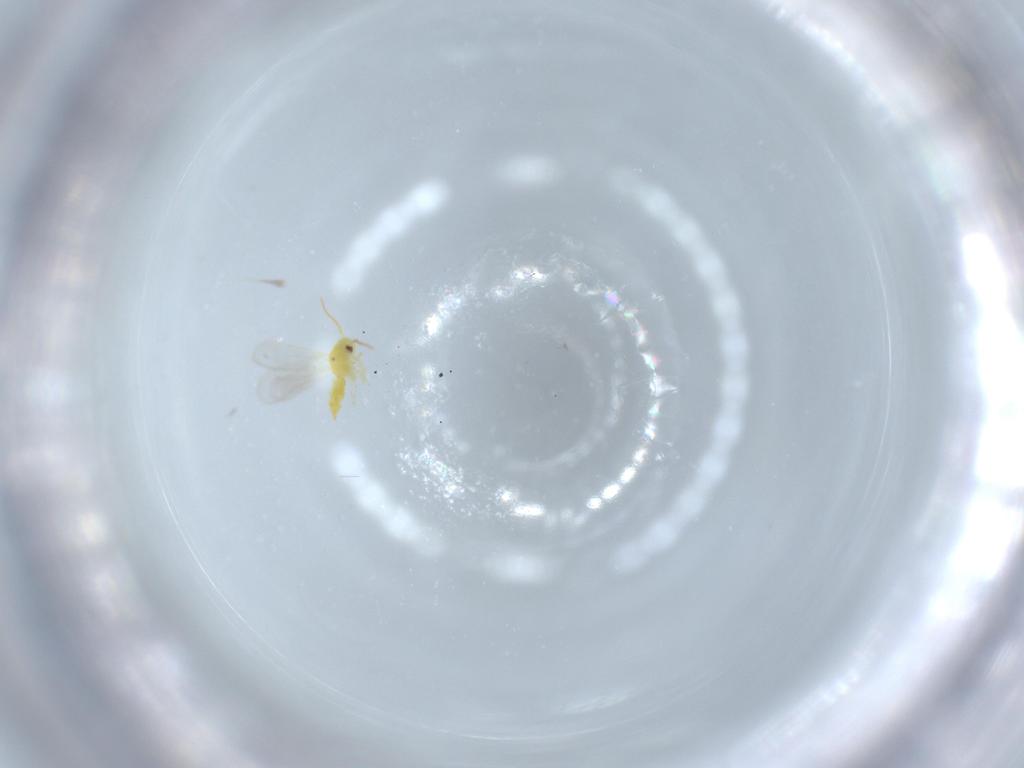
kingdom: Animalia
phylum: Arthropoda
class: Insecta
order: Hemiptera
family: Aleyrodidae
